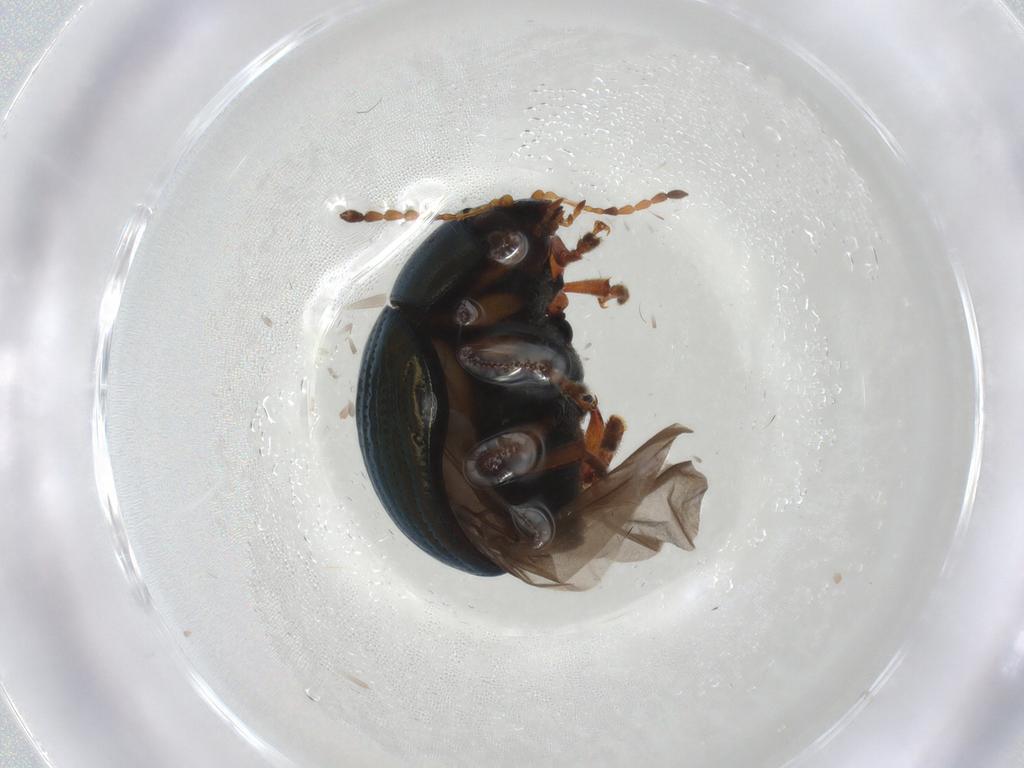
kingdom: Animalia
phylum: Arthropoda
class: Insecta
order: Coleoptera
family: Chrysomelidae
